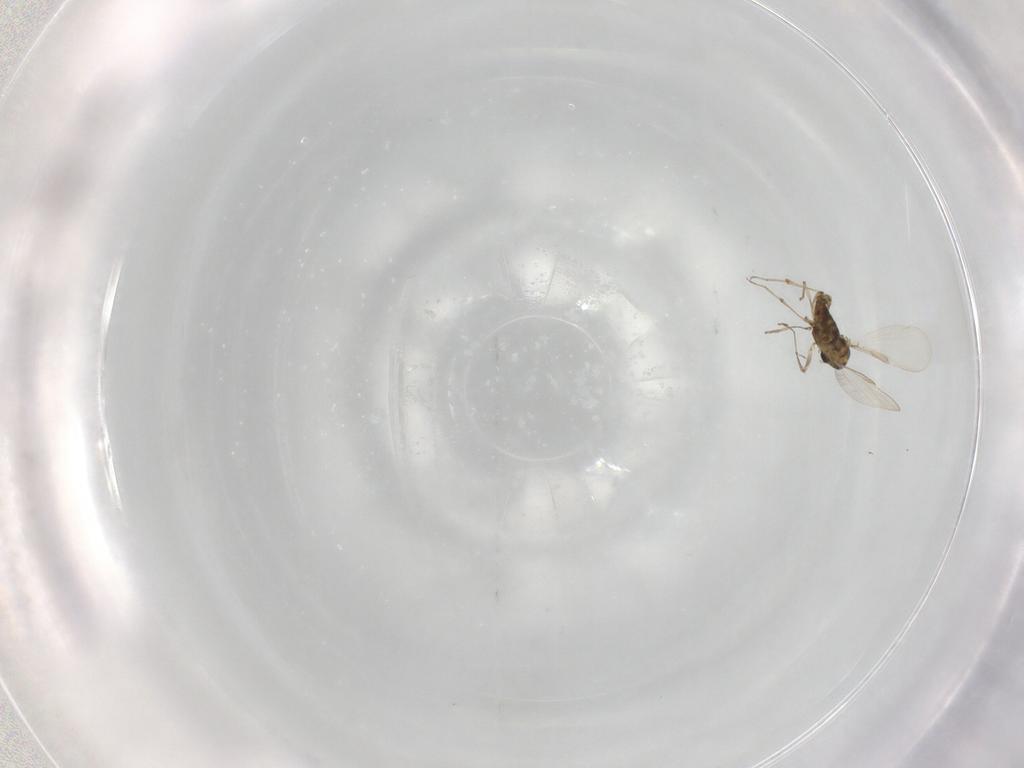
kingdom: Animalia
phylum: Arthropoda
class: Insecta
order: Diptera
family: Chironomidae
